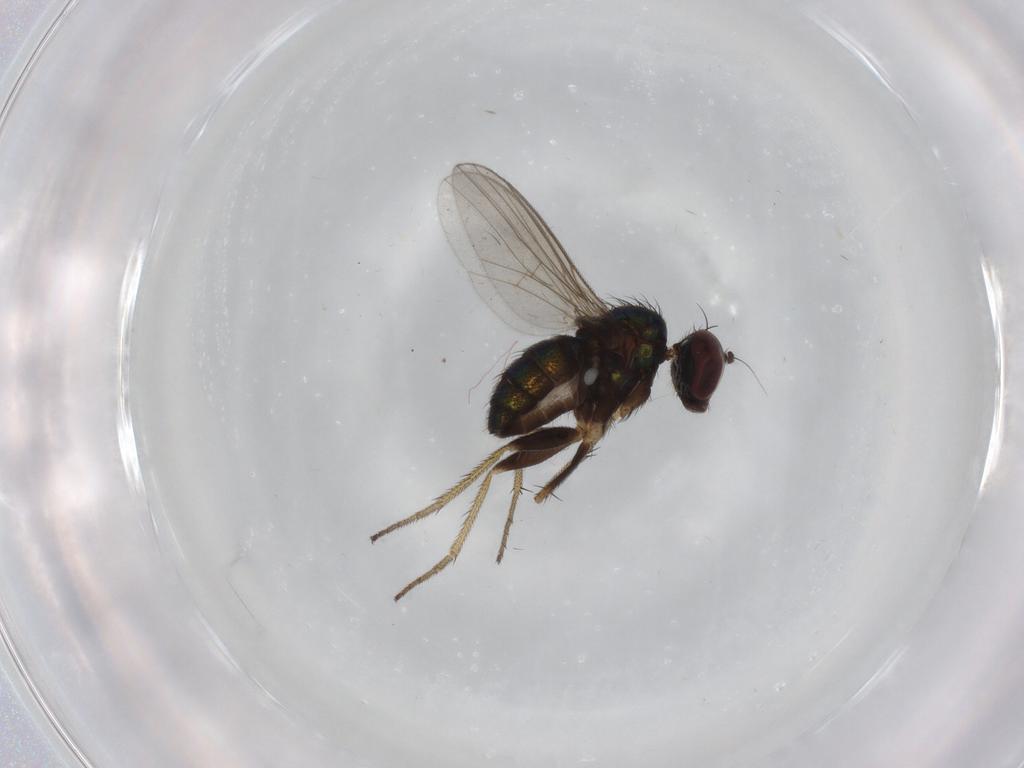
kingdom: Animalia
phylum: Arthropoda
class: Insecta
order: Diptera
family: Dolichopodidae
